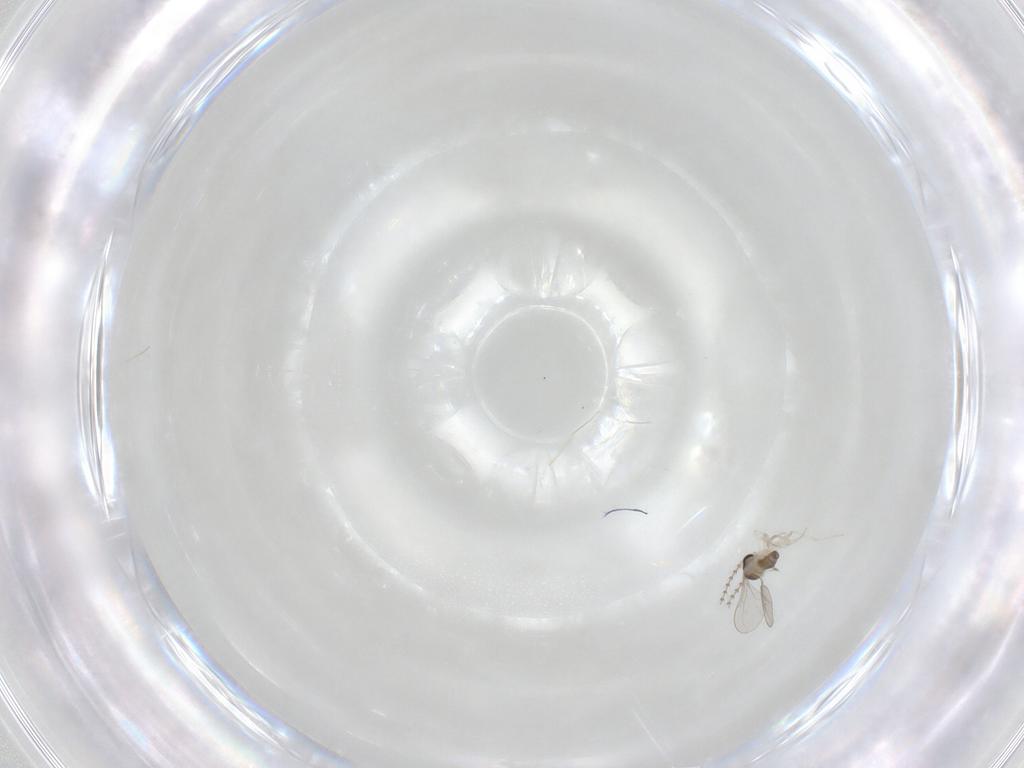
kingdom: Animalia
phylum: Arthropoda
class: Insecta
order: Diptera
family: Cecidomyiidae
